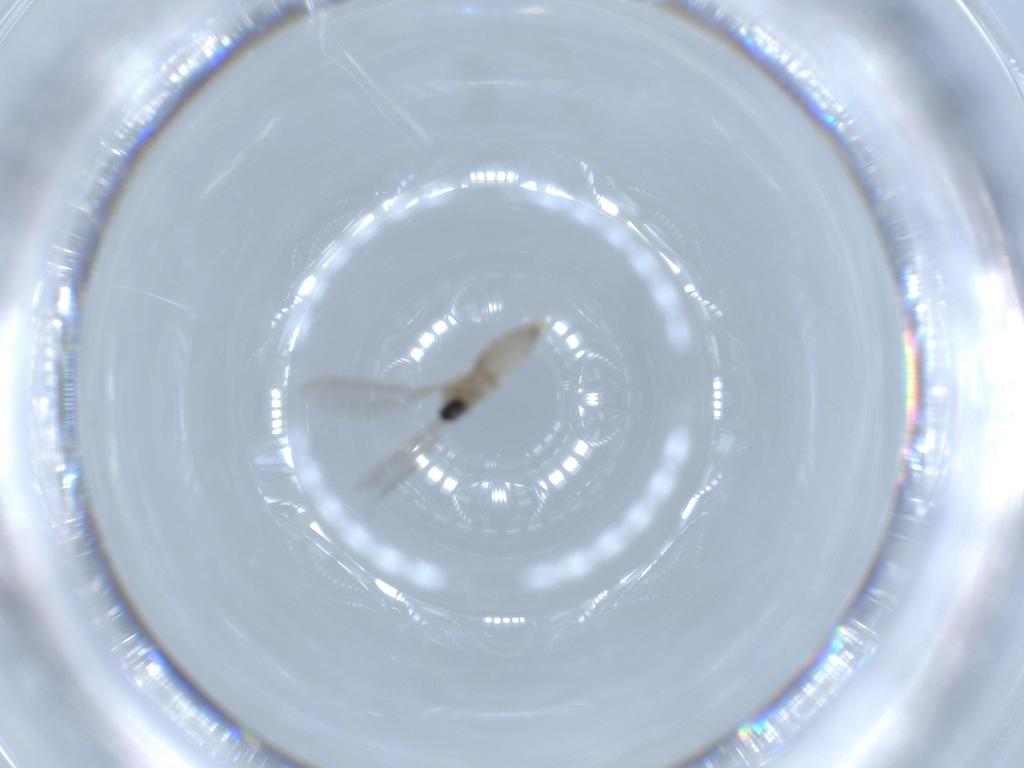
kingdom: Animalia
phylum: Arthropoda
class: Insecta
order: Diptera
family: Cecidomyiidae
